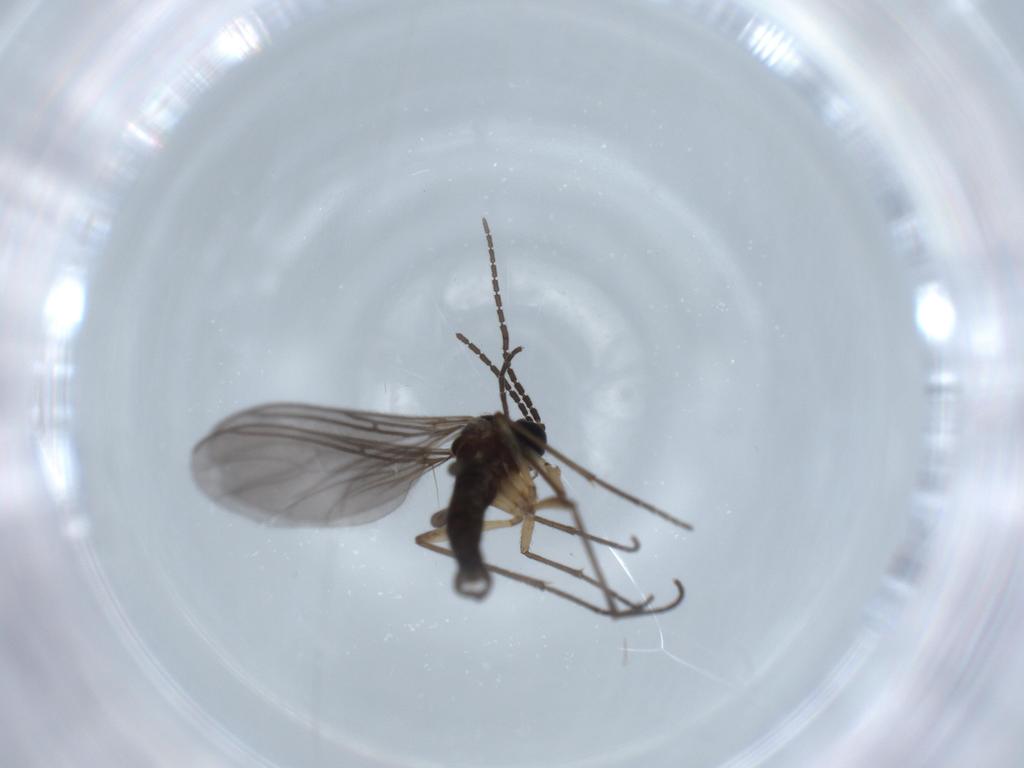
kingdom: Animalia
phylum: Arthropoda
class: Insecta
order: Diptera
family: Sciaridae
